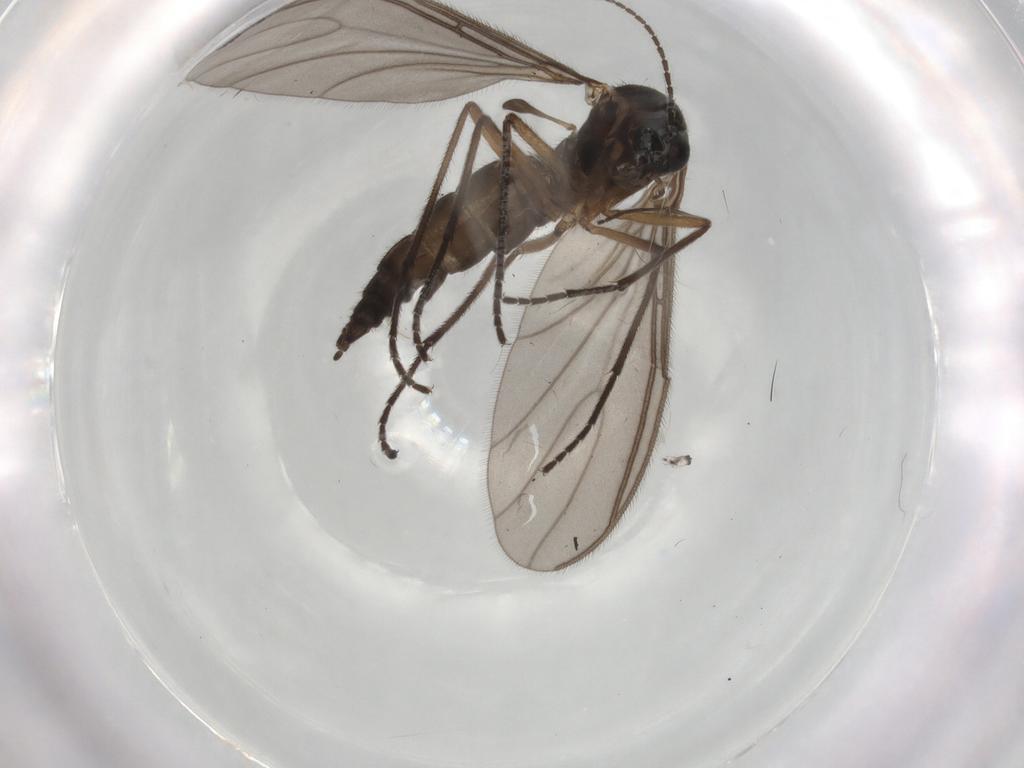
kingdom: Animalia
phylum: Arthropoda
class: Insecta
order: Diptera
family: Sciaridae
